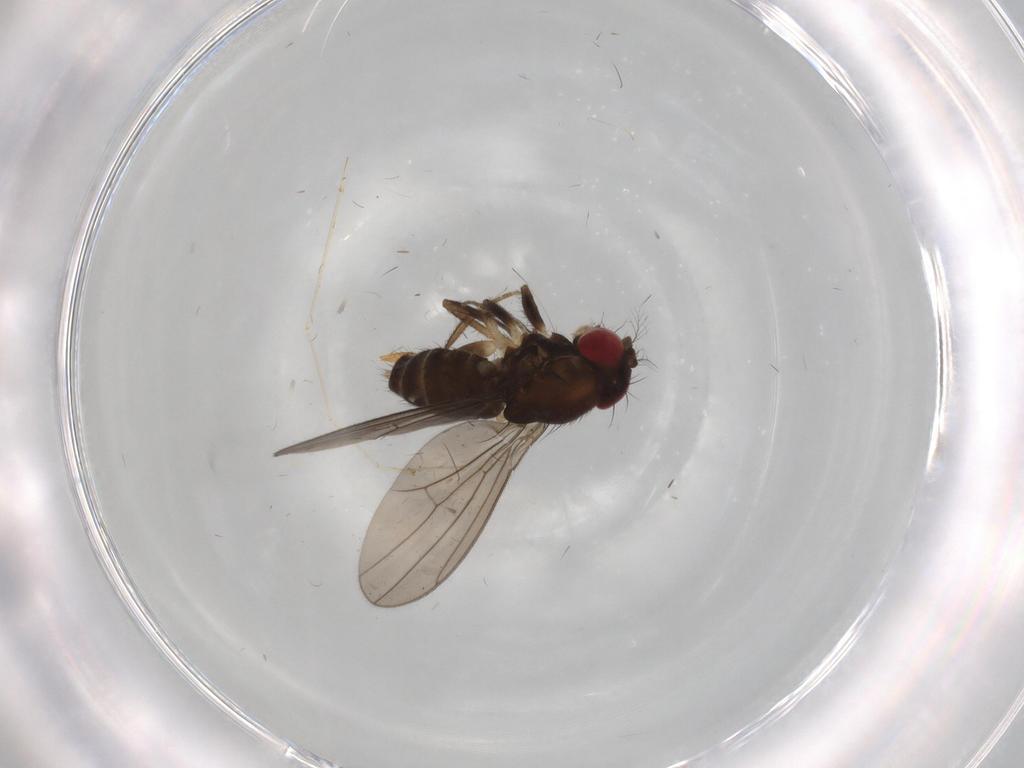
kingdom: Animalia
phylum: Arthropoda
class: Insecta
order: Diptera
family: Drosophilidae
